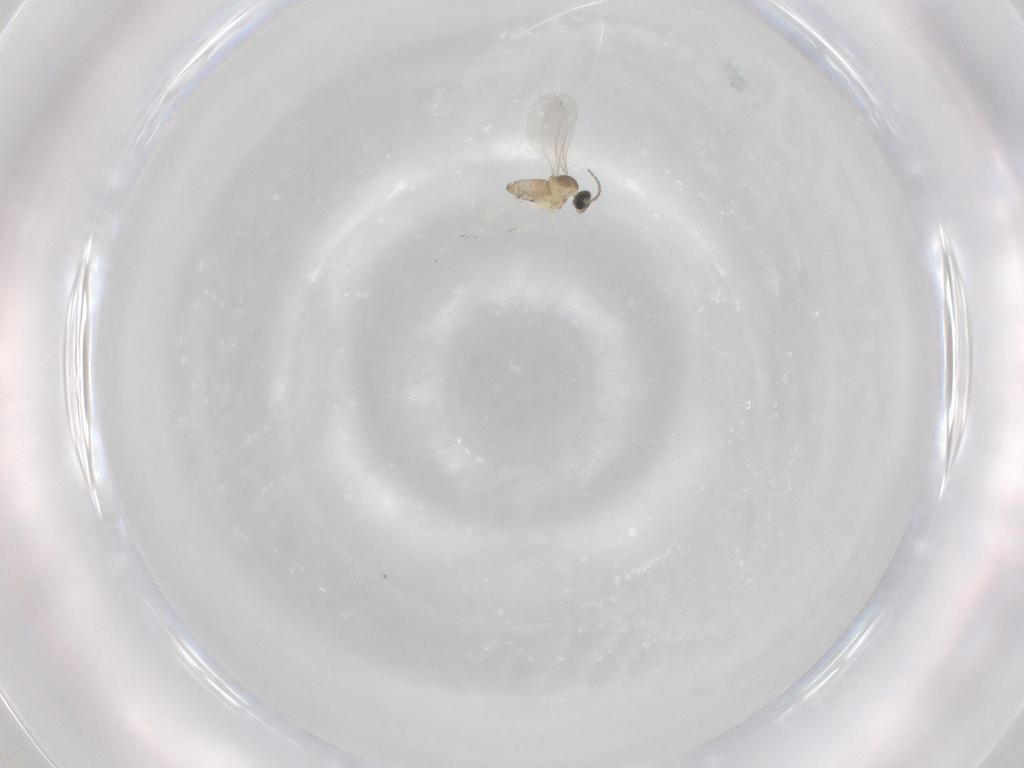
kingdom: Animalia
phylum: Arthropoda
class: Insecta
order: Diptera
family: Cecidomyiidae
